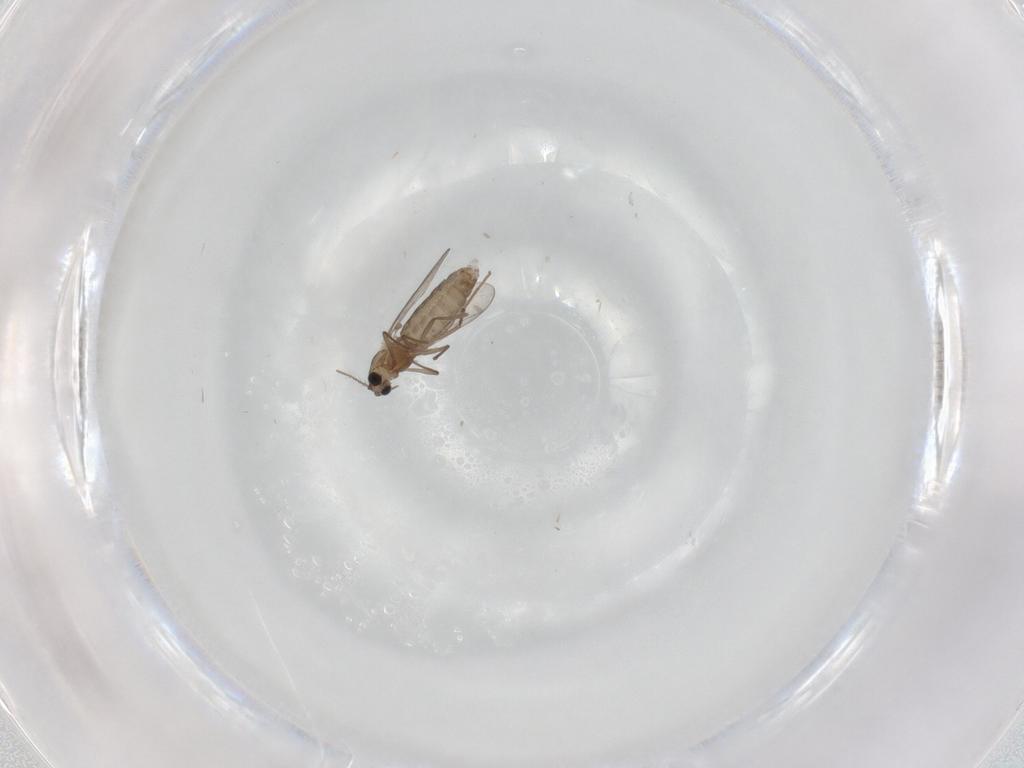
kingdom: Animalia
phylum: Arthropoda
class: Insecta
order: Diptera
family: Chironomidae
